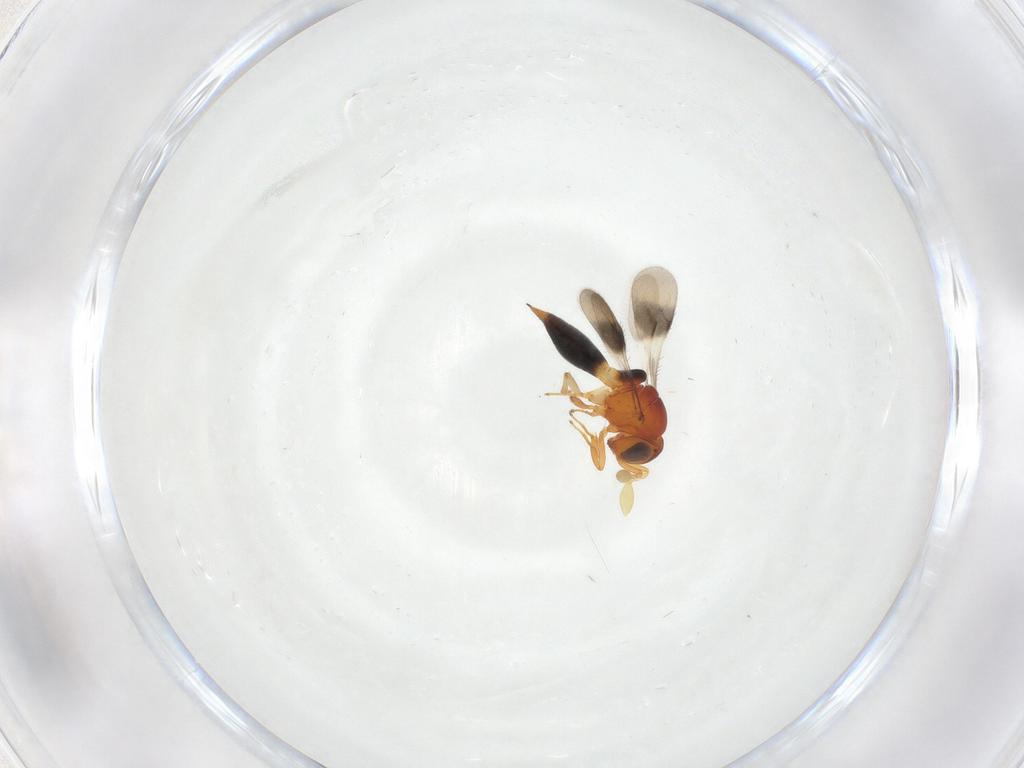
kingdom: Animalia
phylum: Arthropoda
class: Insecta
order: Hymenoptera
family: Scelionidae
